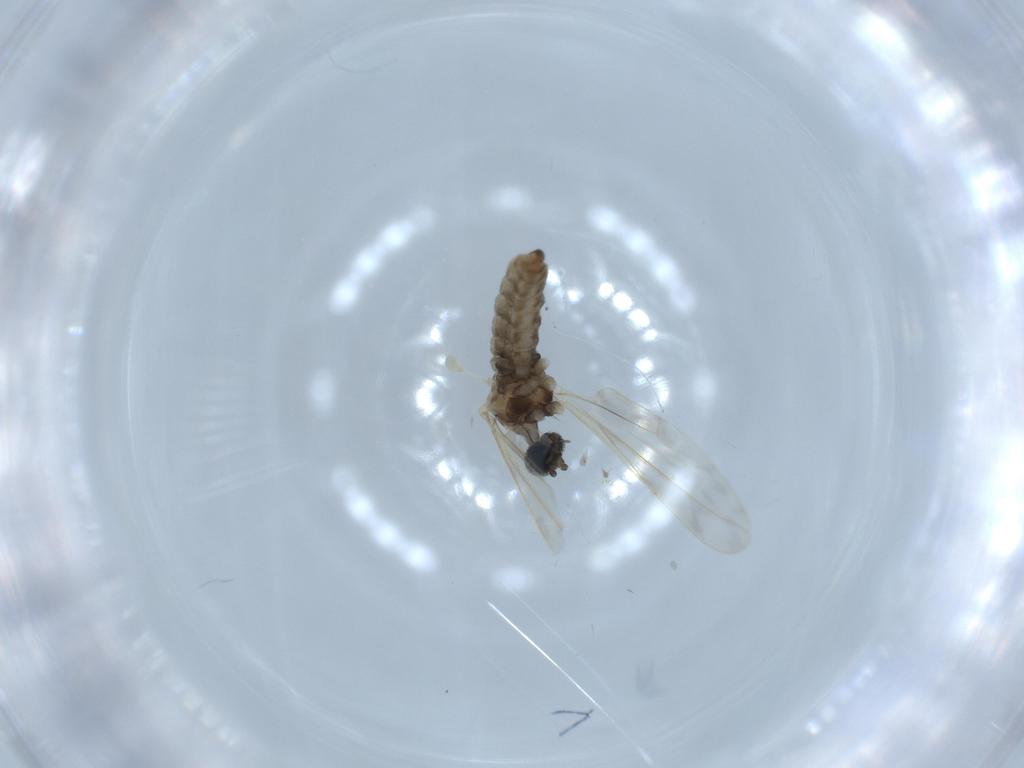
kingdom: Animalia
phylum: Arthropoda
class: Insecta
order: Diptera
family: Cecidomyiidae
